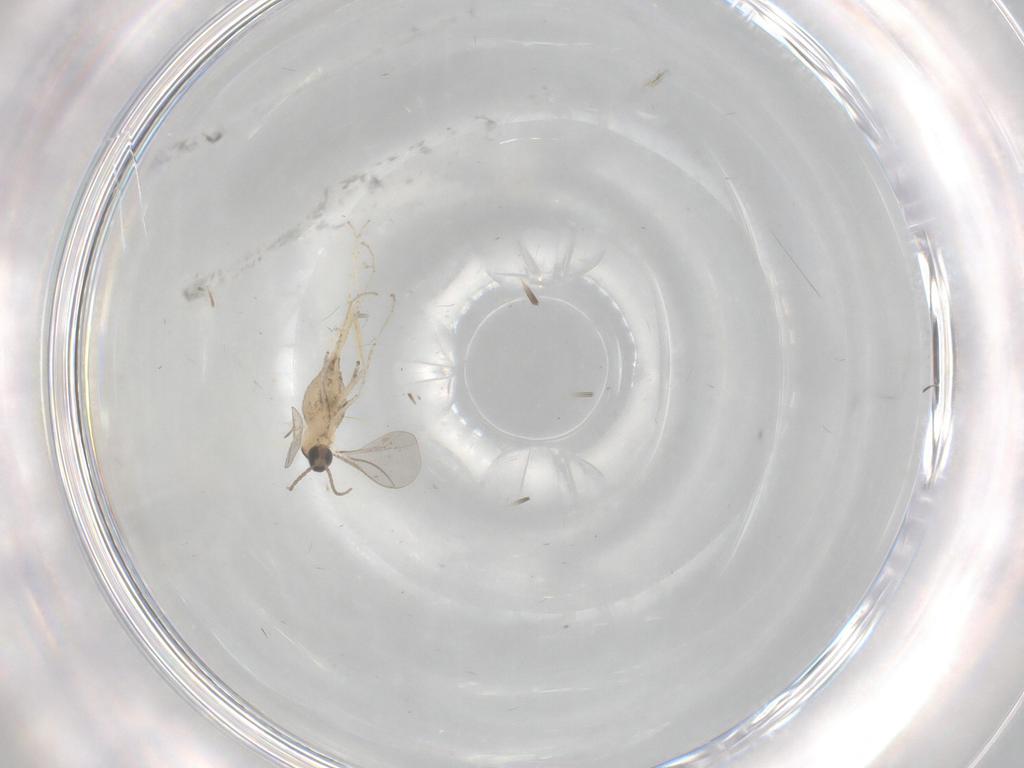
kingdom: Animalia
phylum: Arthropoda
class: Insecta
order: Diptera
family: Cecidomyiidae
